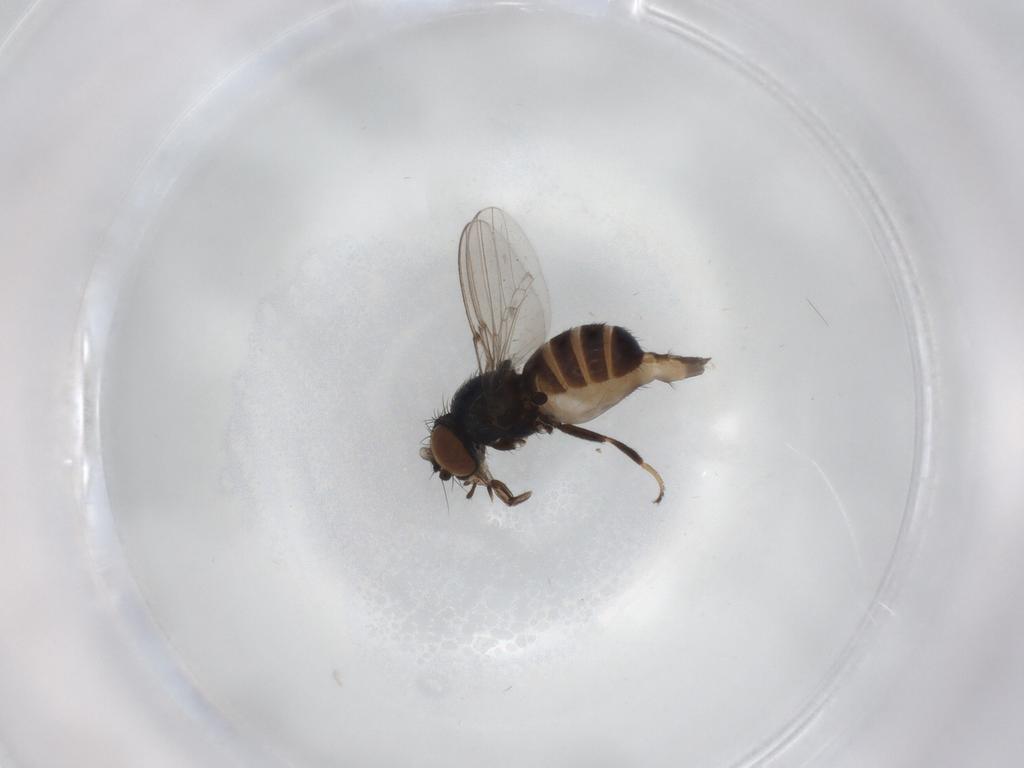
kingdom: Animalia
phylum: Arthropoda
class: Insecta
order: Diptera
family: Milichiidae
